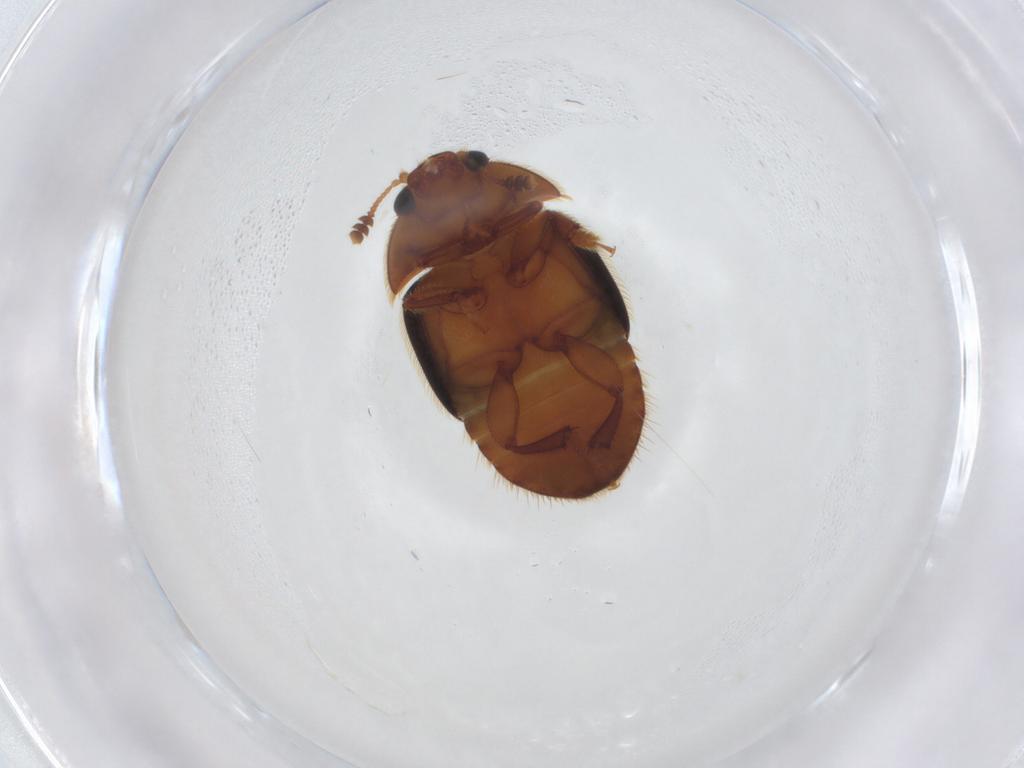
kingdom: Animalia
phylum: Arthropoda
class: Insecta
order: Coleoptera
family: Nitidulidae
